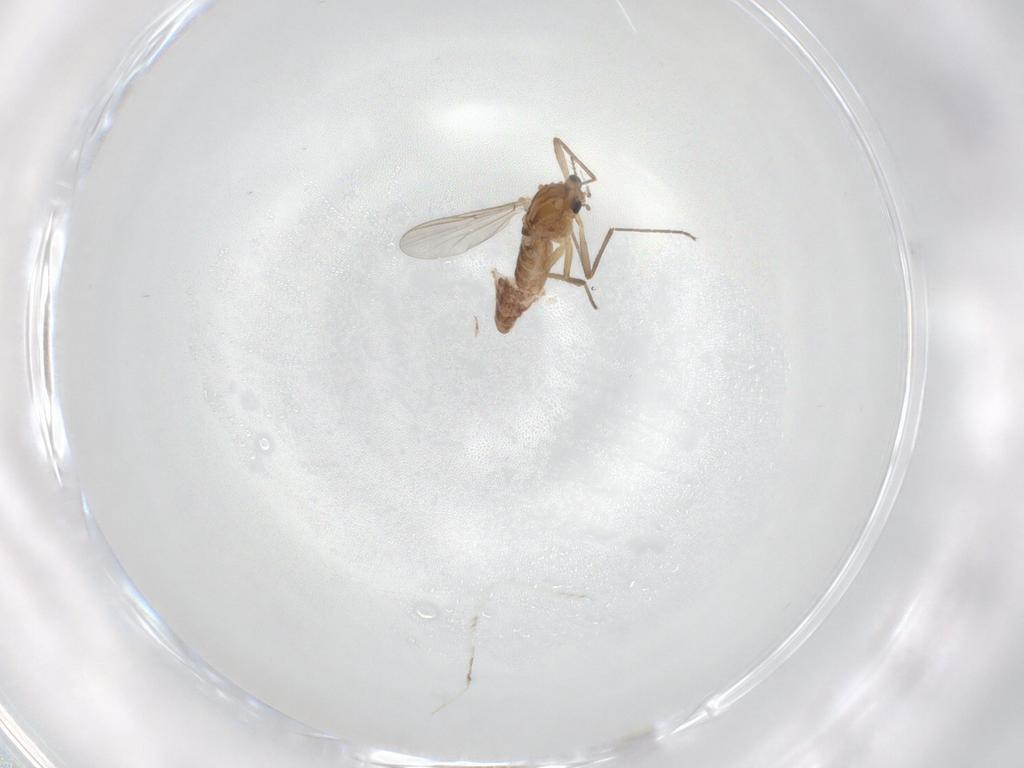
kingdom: Animalia
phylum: Arthropoda
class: Insecta
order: Diptera
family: Chironomidae
